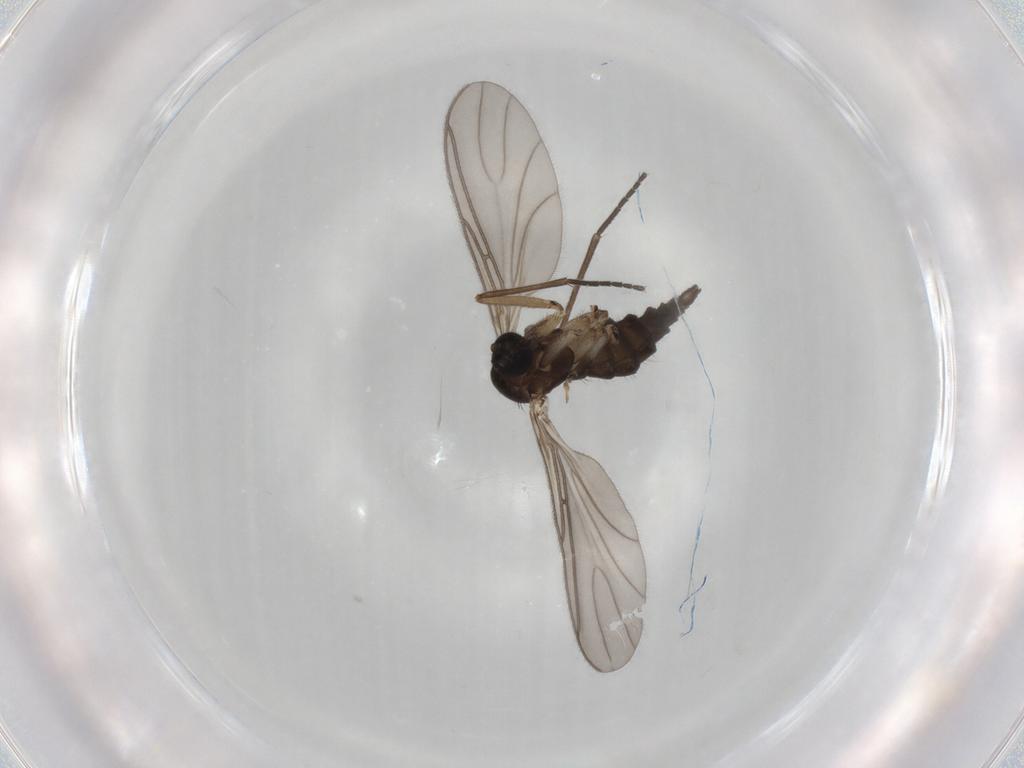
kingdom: Animalia
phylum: Arthropoda
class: Insecta
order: Diptera
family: Sciaridae
